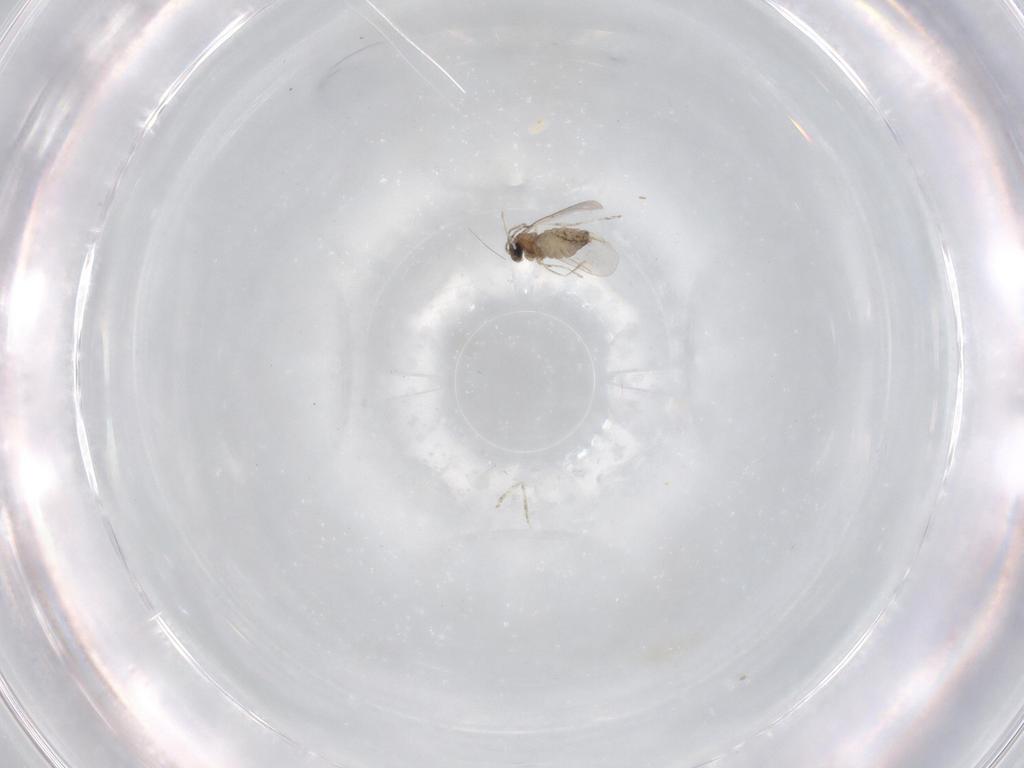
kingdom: Animalia
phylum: Arthropoda
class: Insecta
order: Diptera
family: Cecidomyiidae
